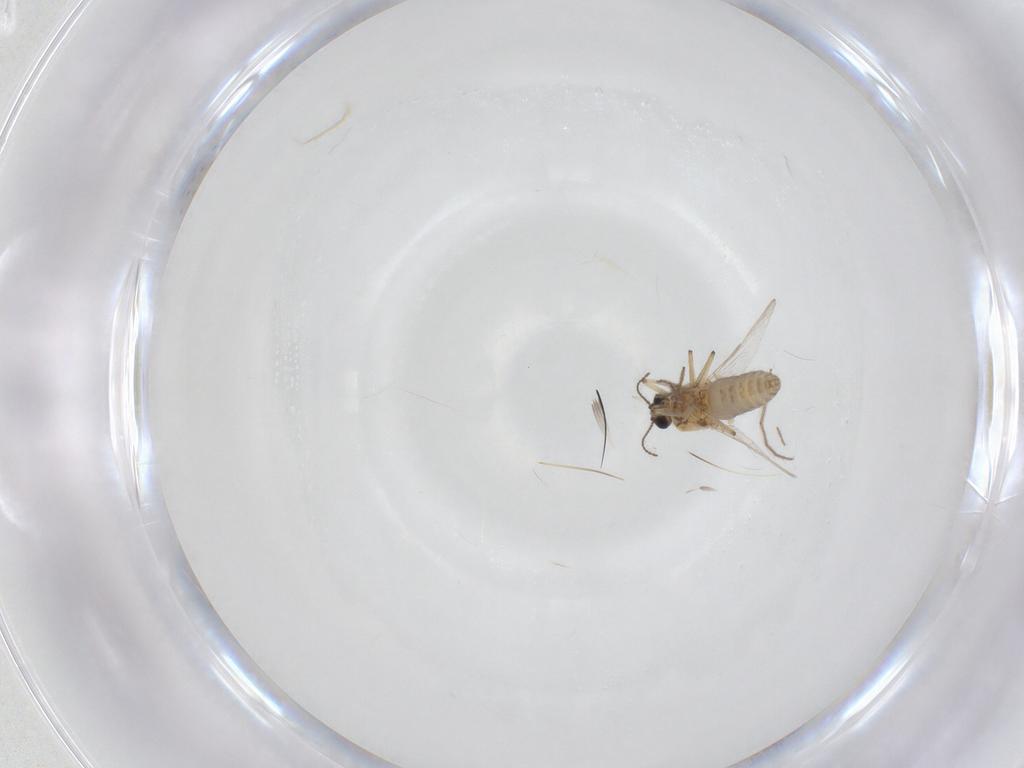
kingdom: Animalia
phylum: Arthropoda
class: Insecta
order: Diptera
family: Ceratopogonidae
